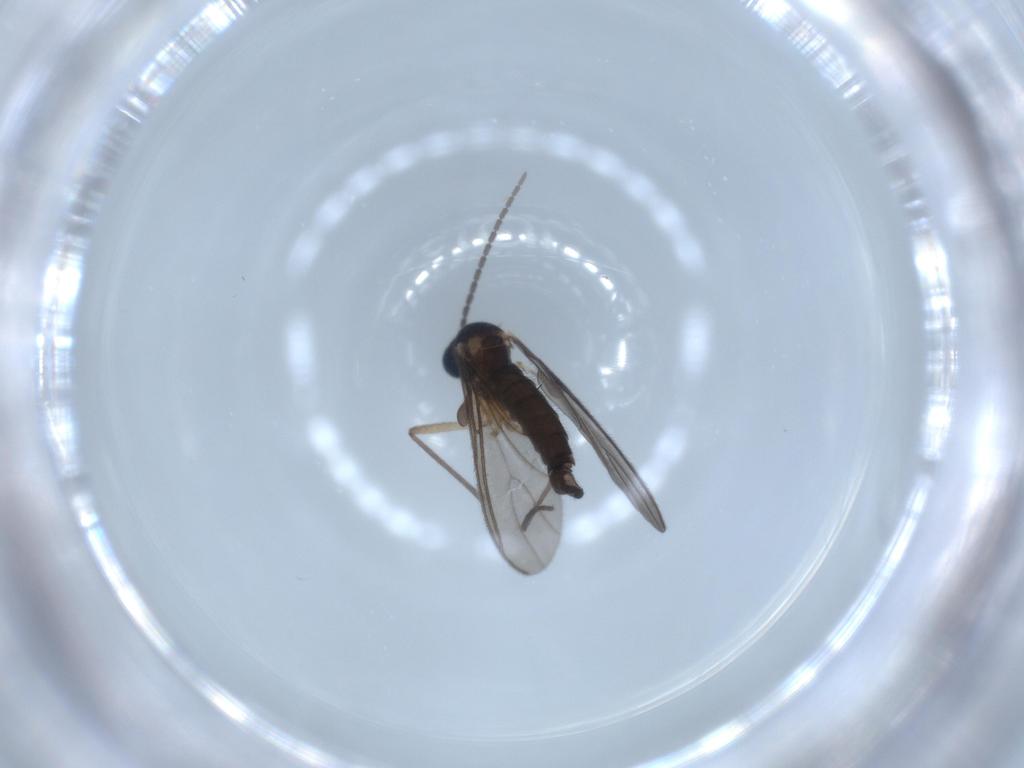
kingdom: Animalia
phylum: Arthropoda
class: Insecta
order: Diptera
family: Sciaridae
